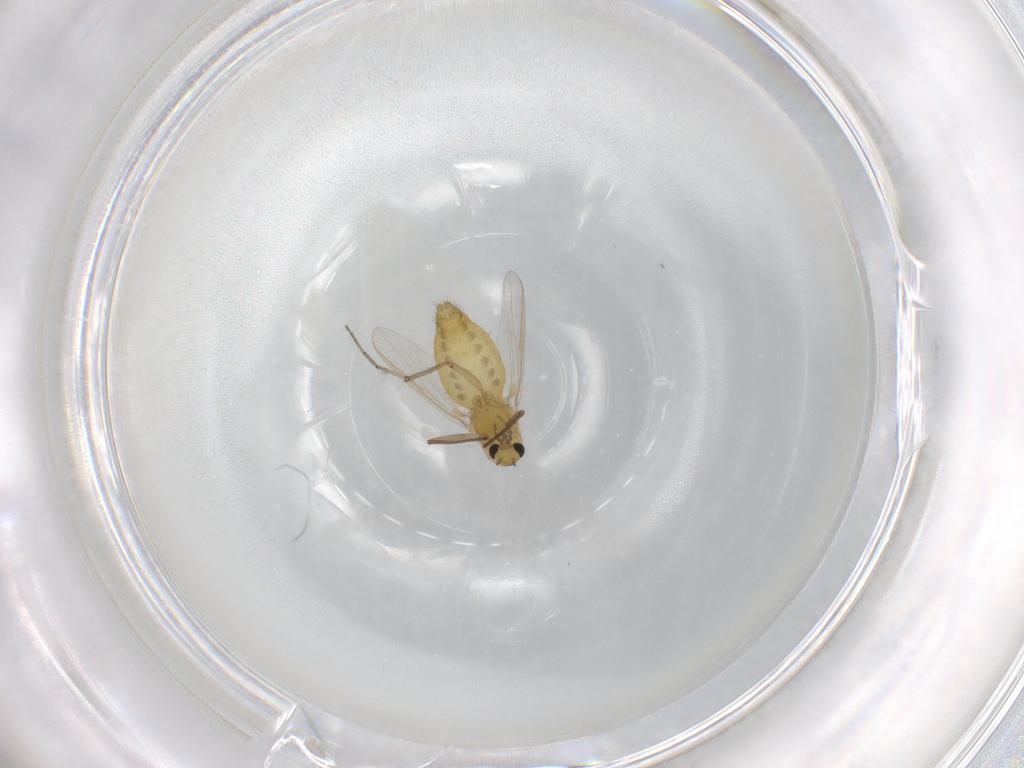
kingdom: Animalia
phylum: Arthropoda
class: Insecta
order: Diptera
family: Chironomidae
